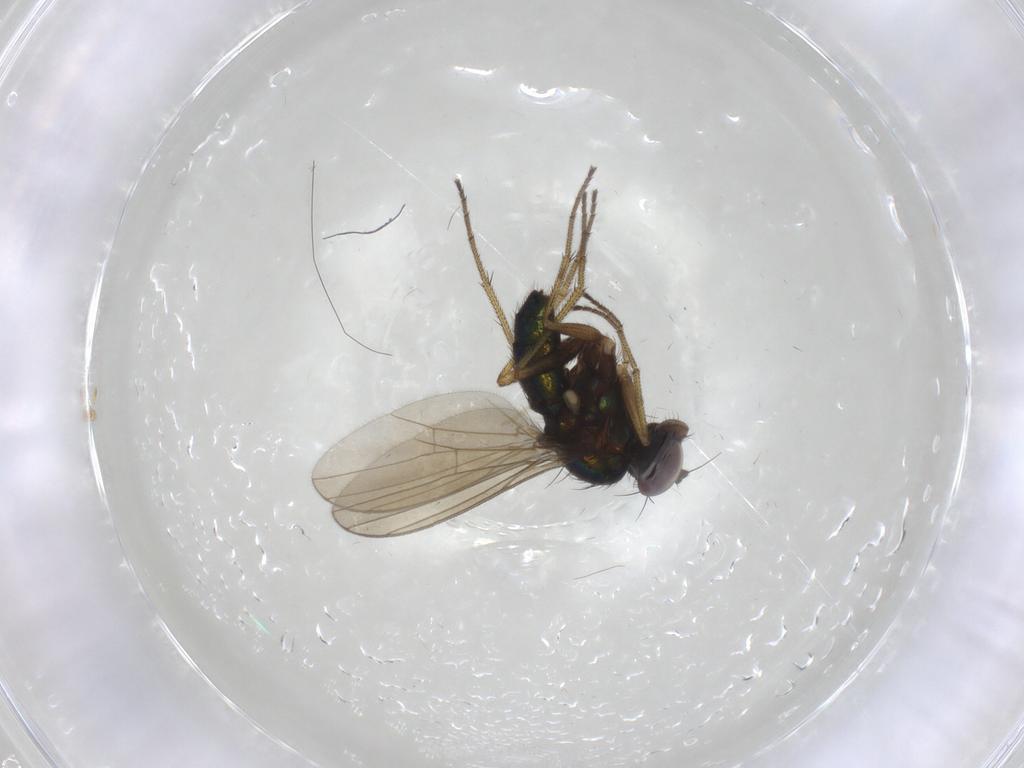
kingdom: Animalia
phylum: Arthropoda
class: Insecta
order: Diptera
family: Dolichopodidae
